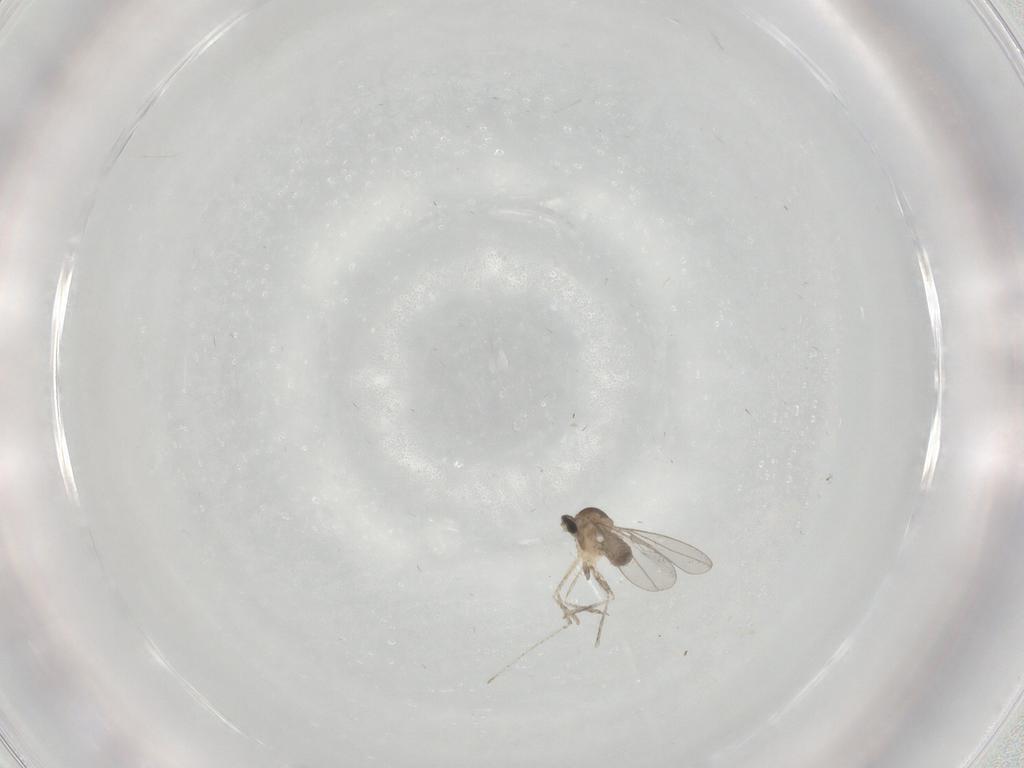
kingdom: Animalia
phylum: Arthropoda
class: Insecta
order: Diptera
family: Cecidomyiidae
